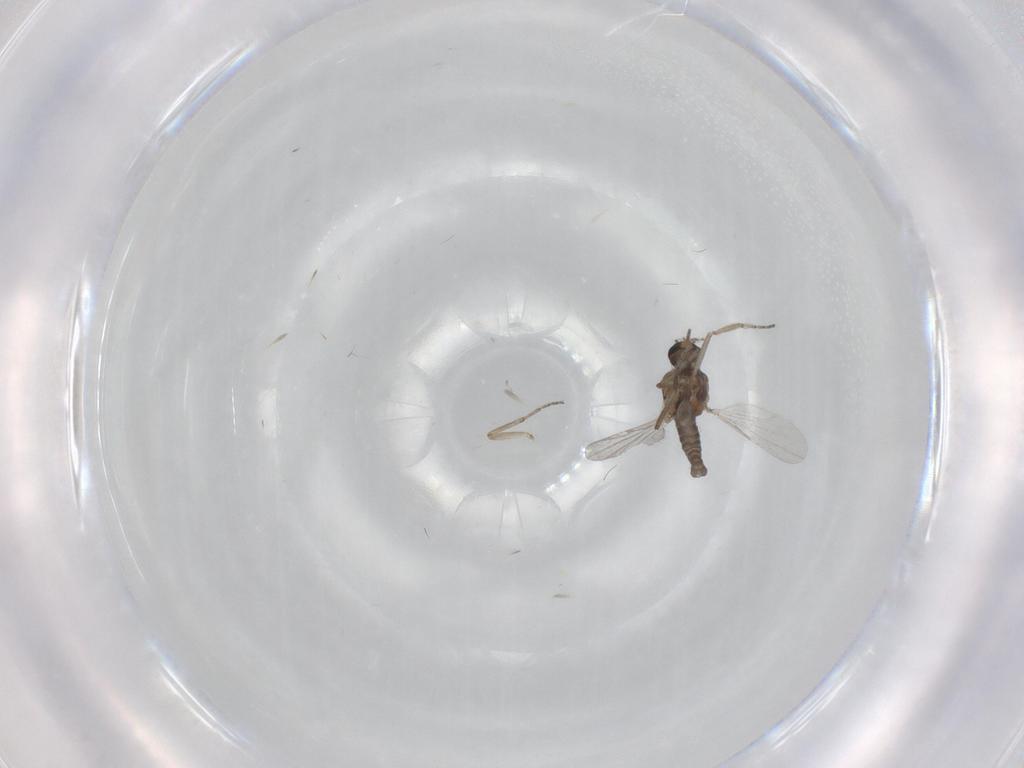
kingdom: Animalia
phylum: Arthropoda
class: Insecta
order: Diptera
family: Ceratopogonidae
